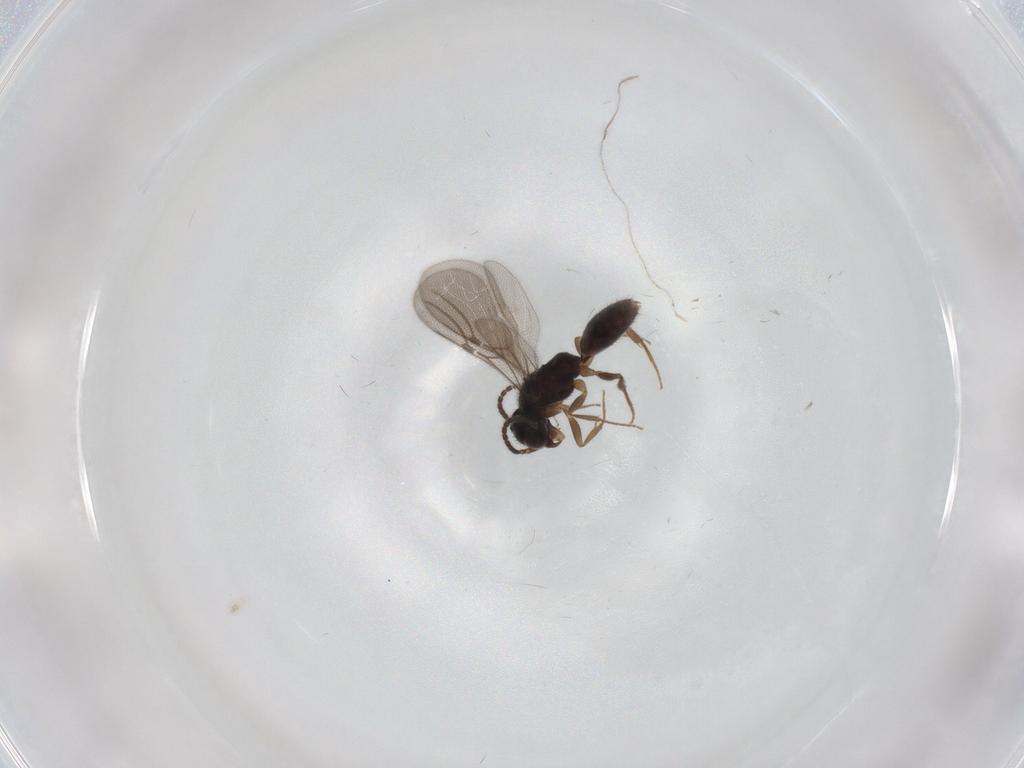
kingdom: Animalia
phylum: Arthropoda
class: Insecta
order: Hymenoptera
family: Bethylidae
